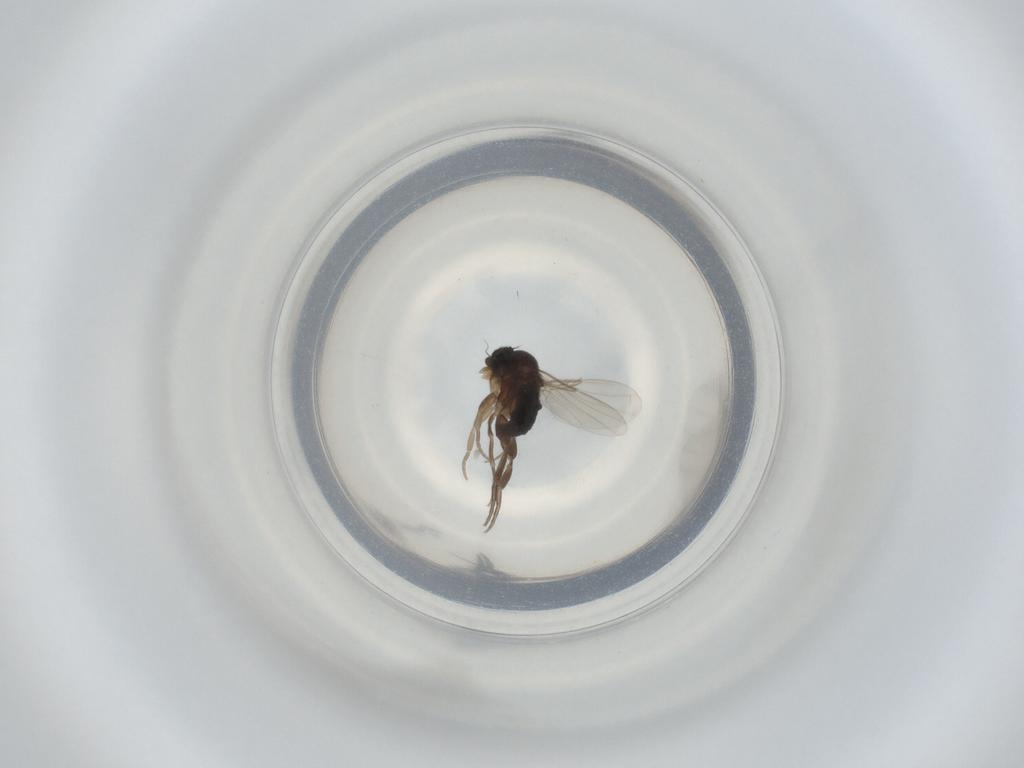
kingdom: Animalia
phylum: Arthropoda
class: Insecta
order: Diptera
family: Phoridae
